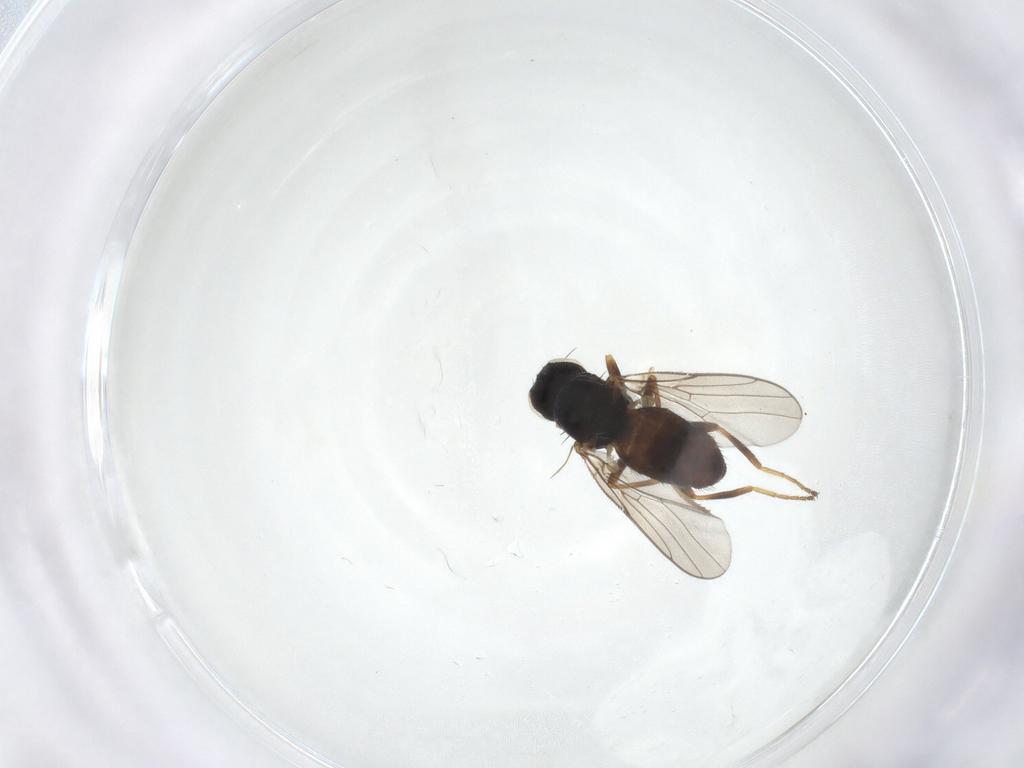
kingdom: Animalia
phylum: Arthropoda
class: Insecta
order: Diptera
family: Chloropidae
